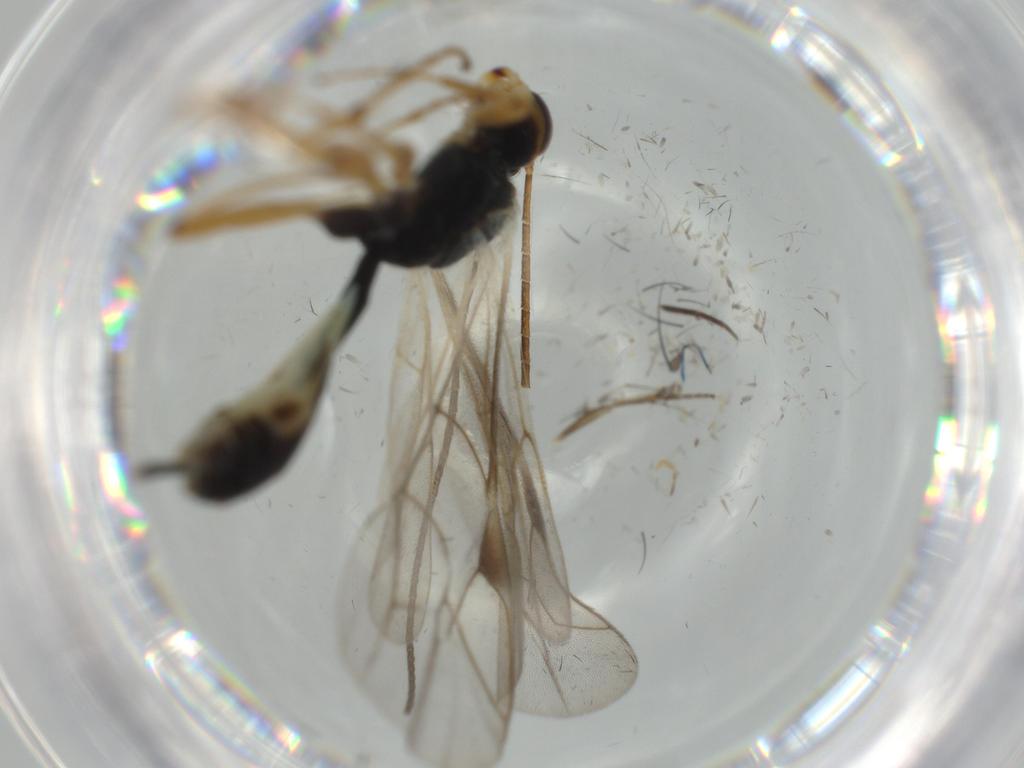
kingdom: Animalia
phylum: Arthropoda
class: Insecta
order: Hymenoptera
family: Ichneumonidae
